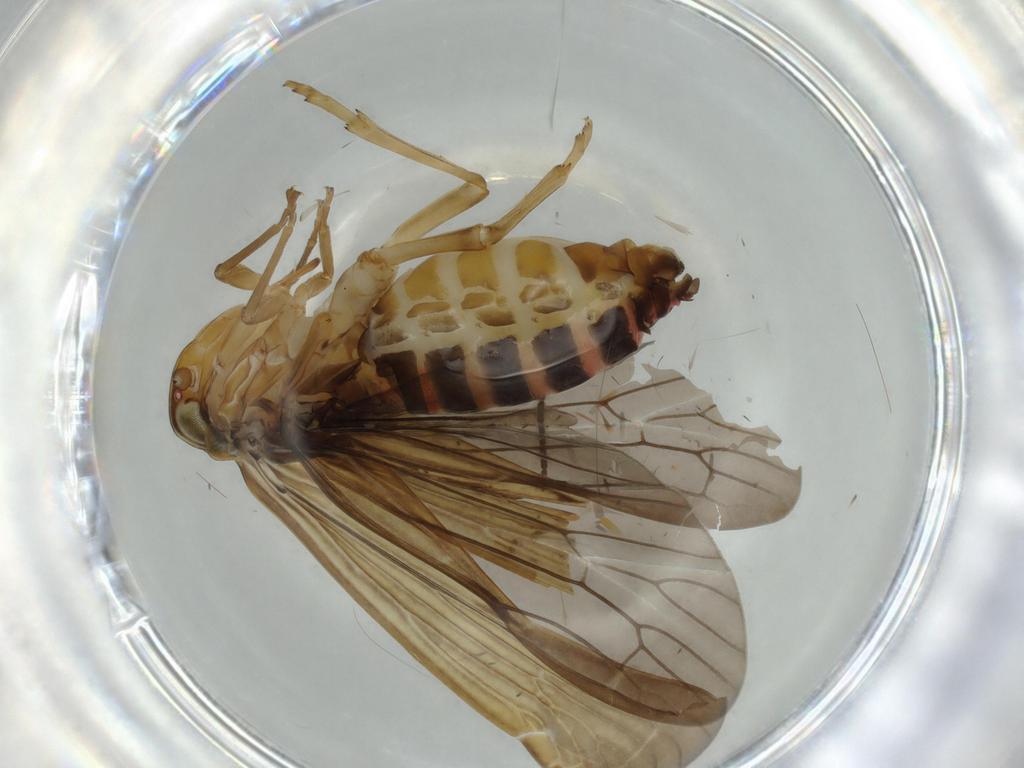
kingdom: Animalia
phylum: Arthropoda
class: Insecta
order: Hemiptera
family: Achilidae
